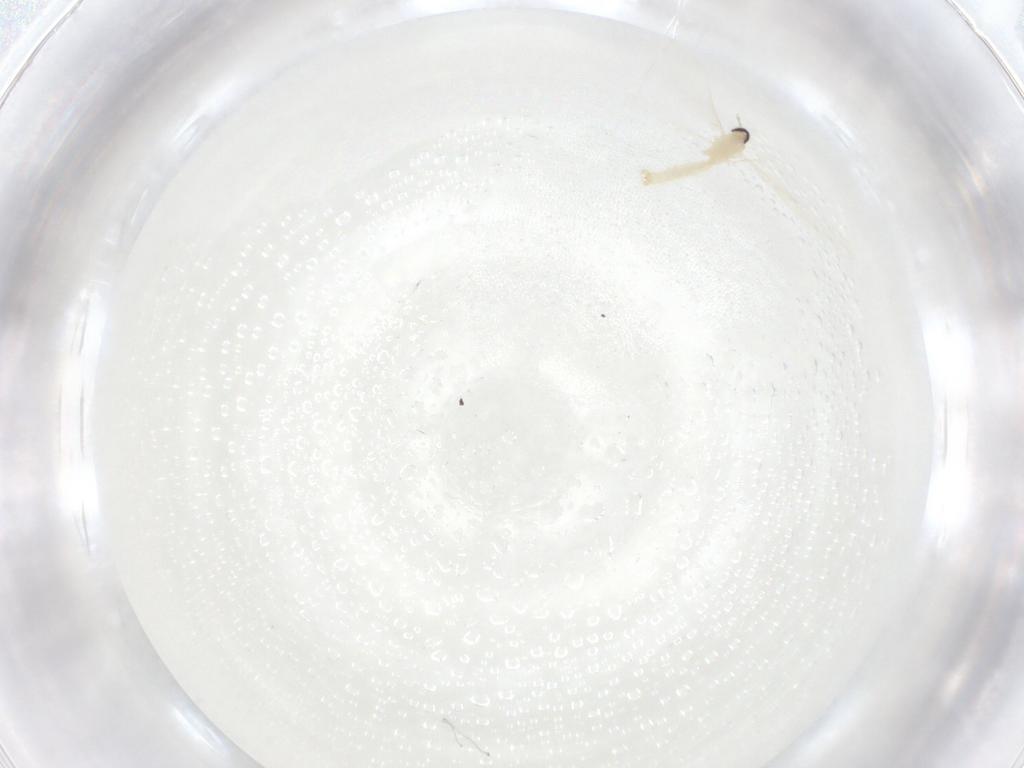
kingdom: Animalia
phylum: Arthropoda
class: Insecta
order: Diptera
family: Cecidomyiidae
